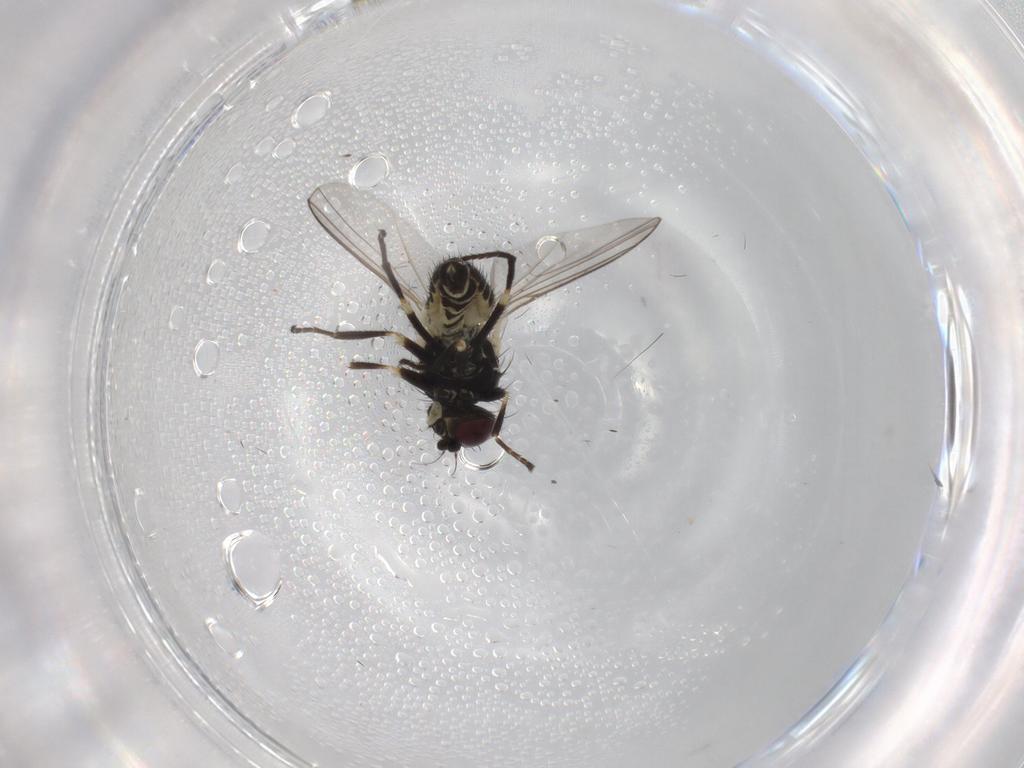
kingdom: Animalia
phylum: Arthropoda
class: Insecta
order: Diptera
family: Agromyzidae
